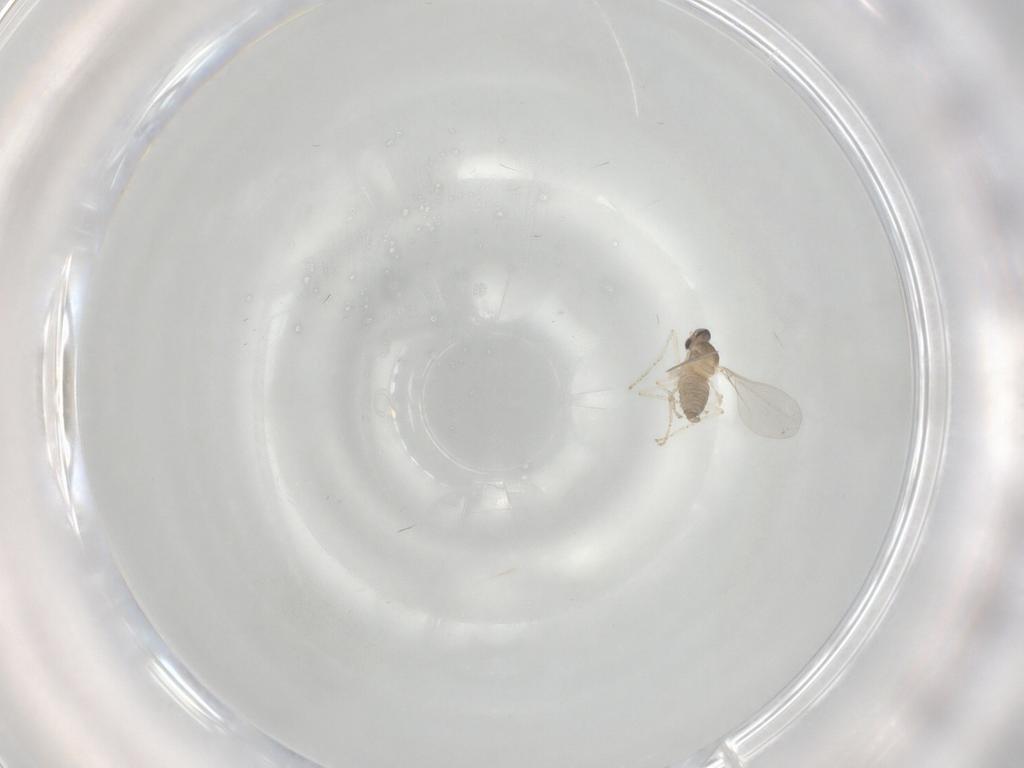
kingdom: Animalia
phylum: Arthropoda
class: Insecta
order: Diptera
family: Cecidomyiidae
